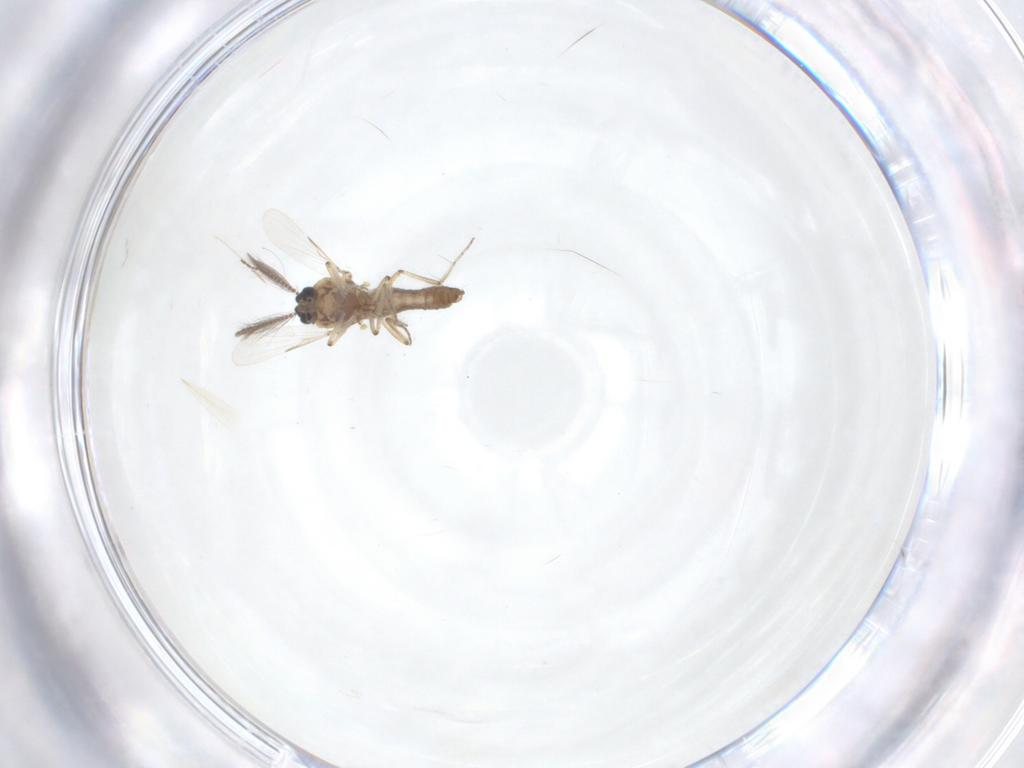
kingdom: Animalia
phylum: Arthropoda
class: Insecta
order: Diptera
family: Ceratopogonidae
